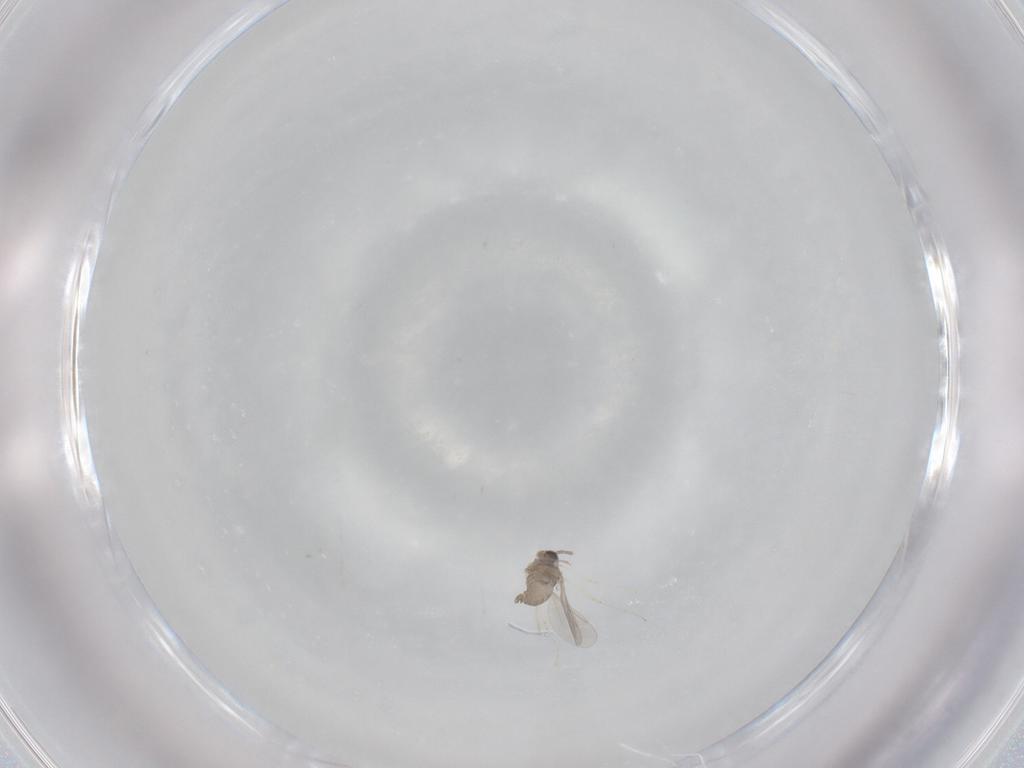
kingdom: Animalia
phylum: Arthropoda
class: Insecta
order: Diptera
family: Cecidomyiidae
